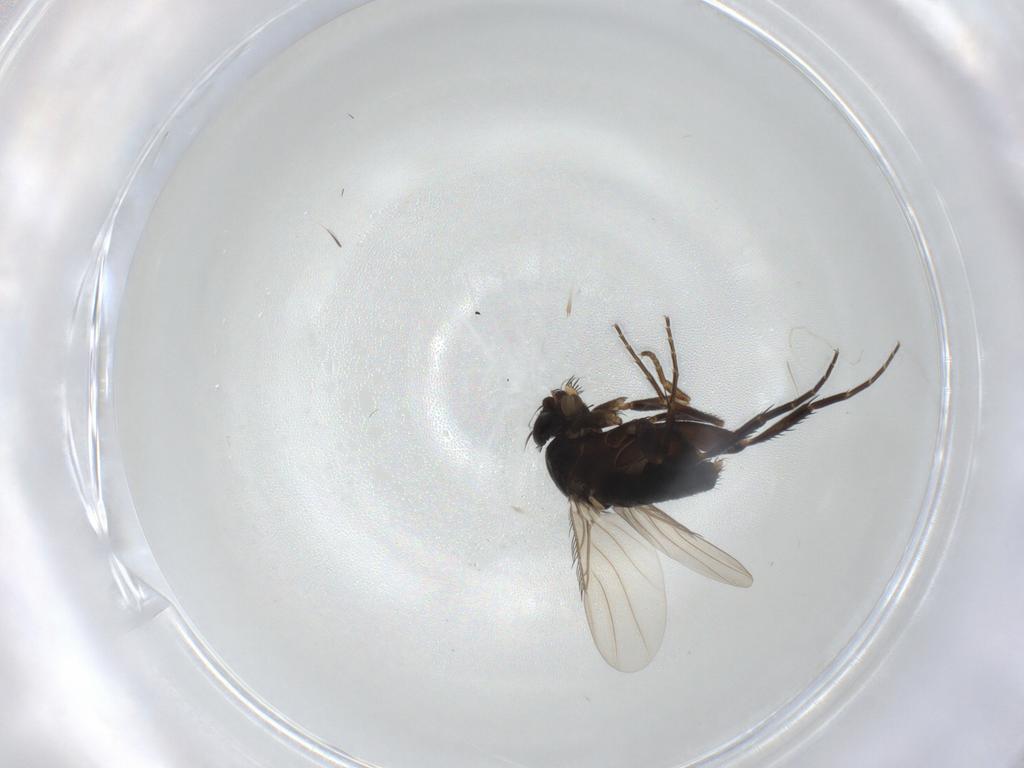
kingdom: Animalia
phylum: Arthropoda
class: Insecta
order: Diptera
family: Phoridae
